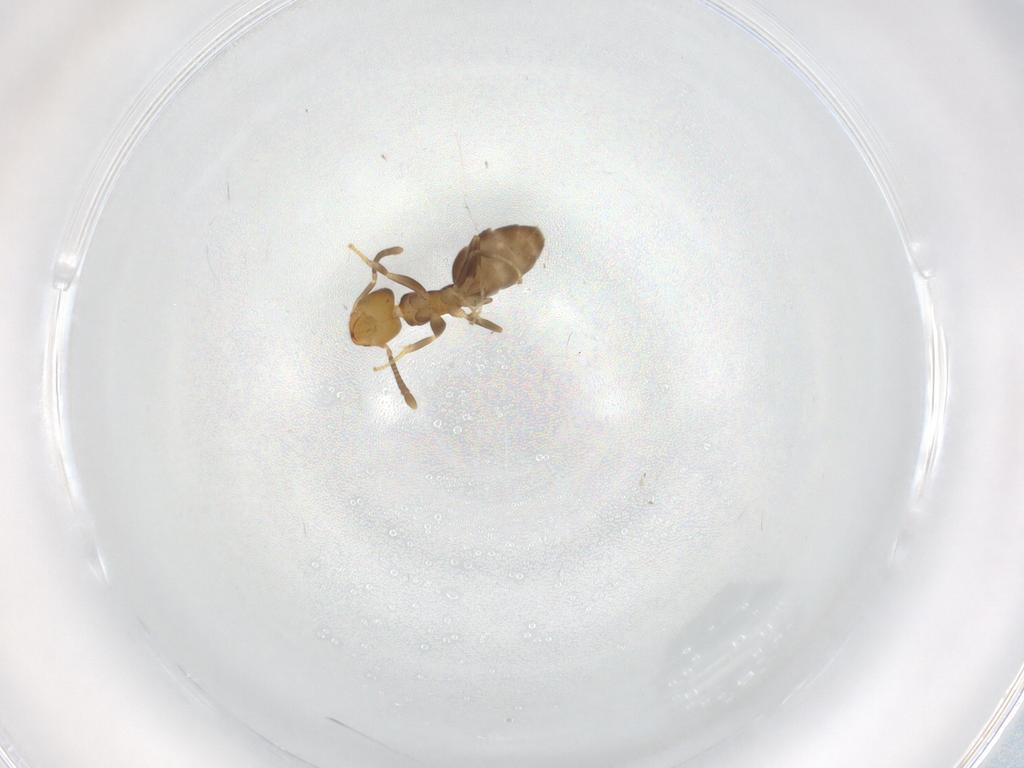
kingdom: Animalia
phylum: Arthropoda
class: Insecta
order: Hymenoptera
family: Formicidae
